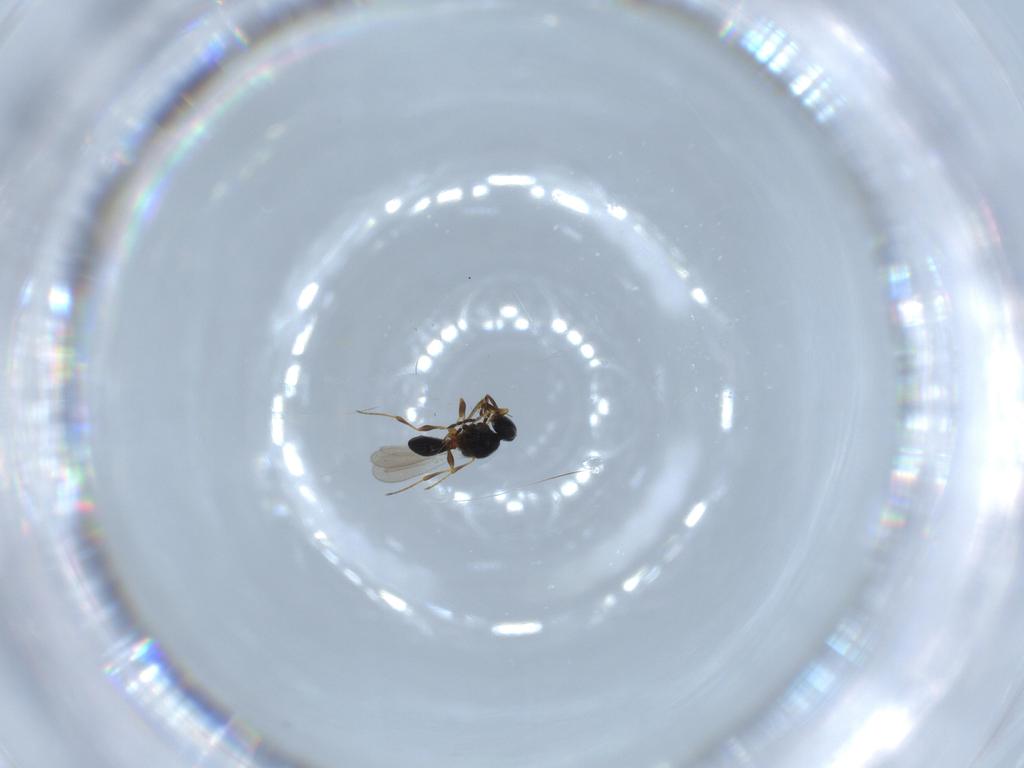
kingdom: Animalia
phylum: Arthropoda
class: Insecta
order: Hymenoptera
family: Platygastridae
